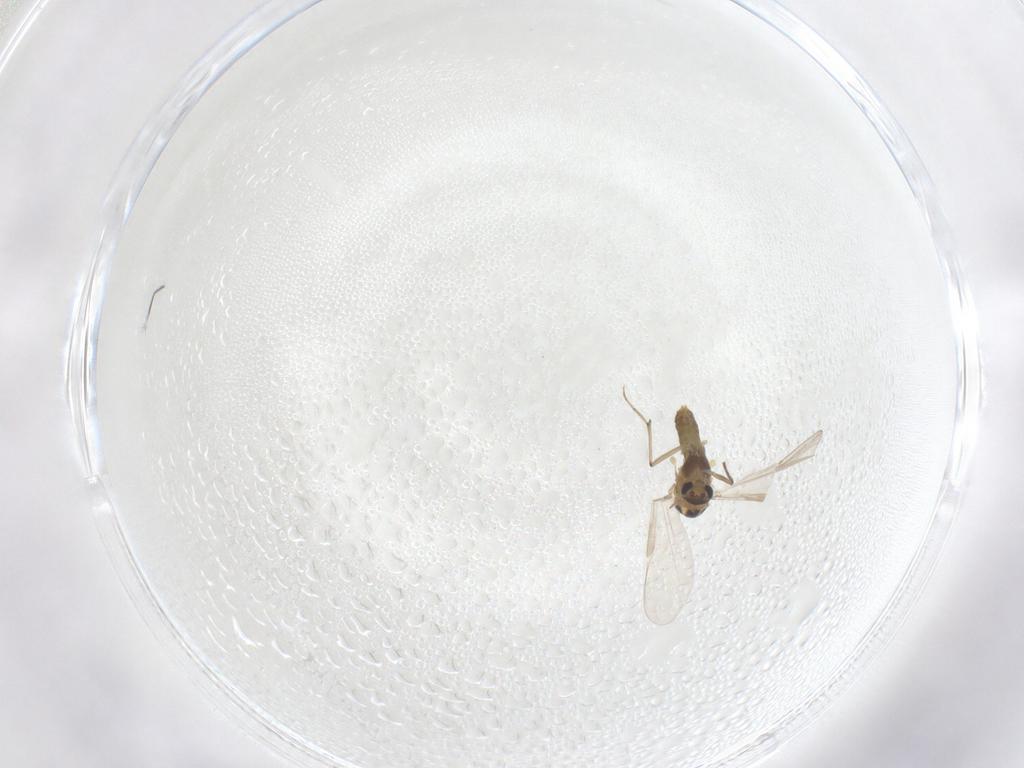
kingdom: Animalia
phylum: Arthropoda
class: Insecta
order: Diptera
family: Chironomidae
